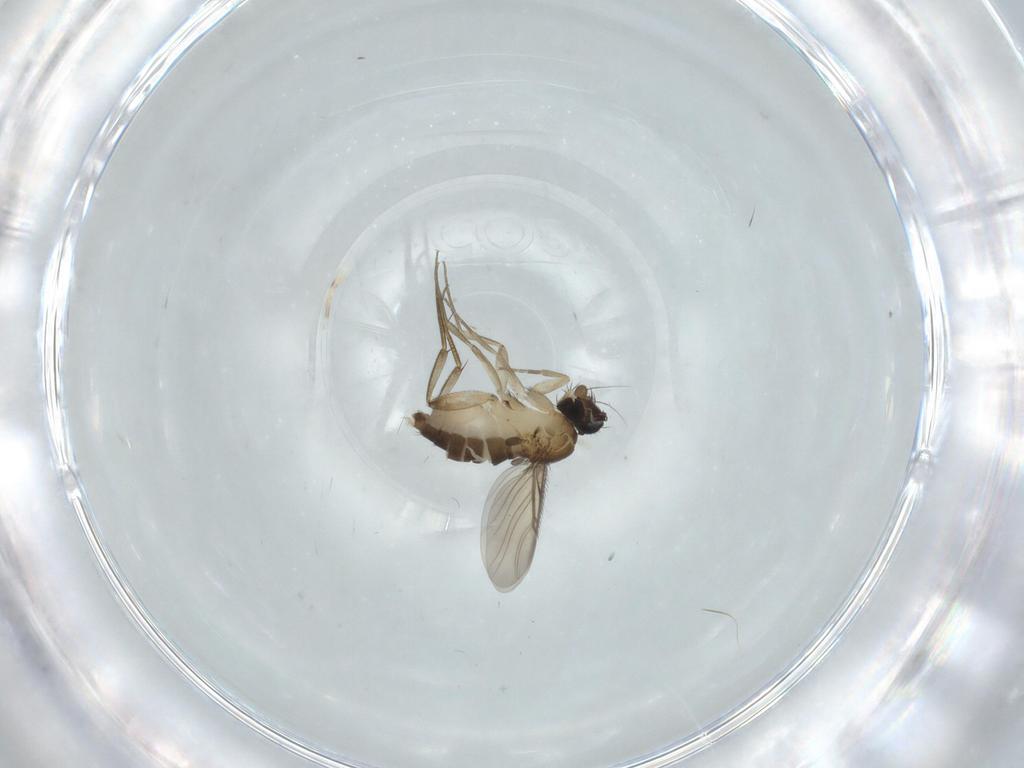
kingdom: Animalia
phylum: Arthropoda
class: Insecta
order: Diptera
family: Phoridae
